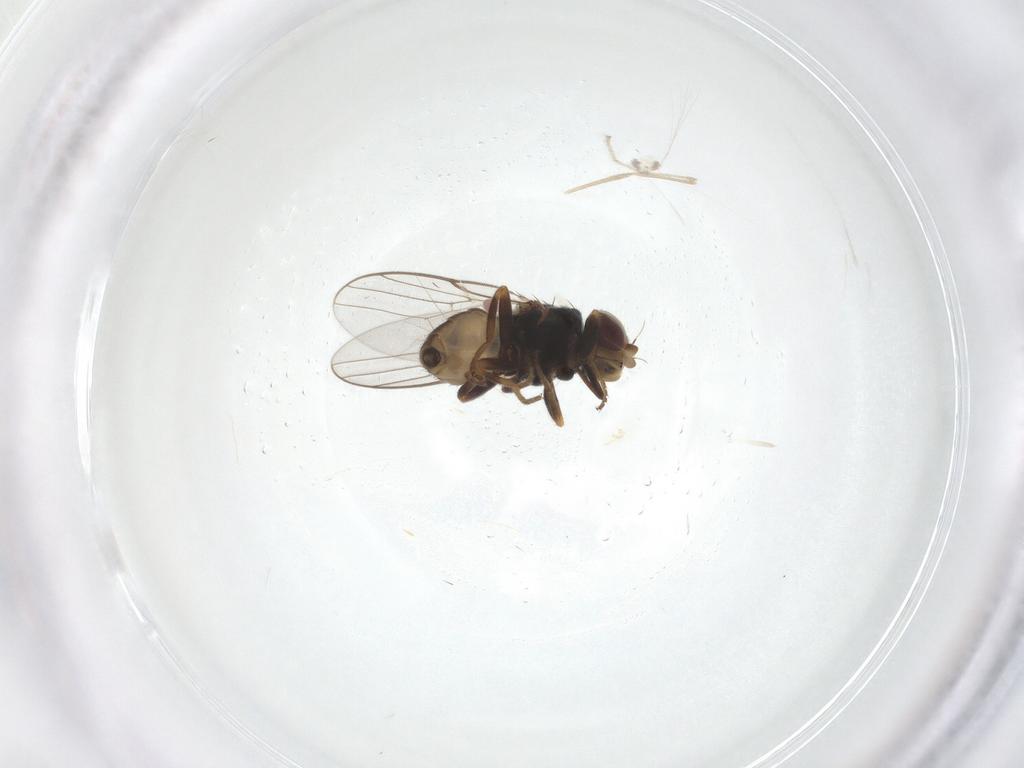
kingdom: Animalia
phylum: Arthropoda
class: Insecta
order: Diptera
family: Chloropidae
